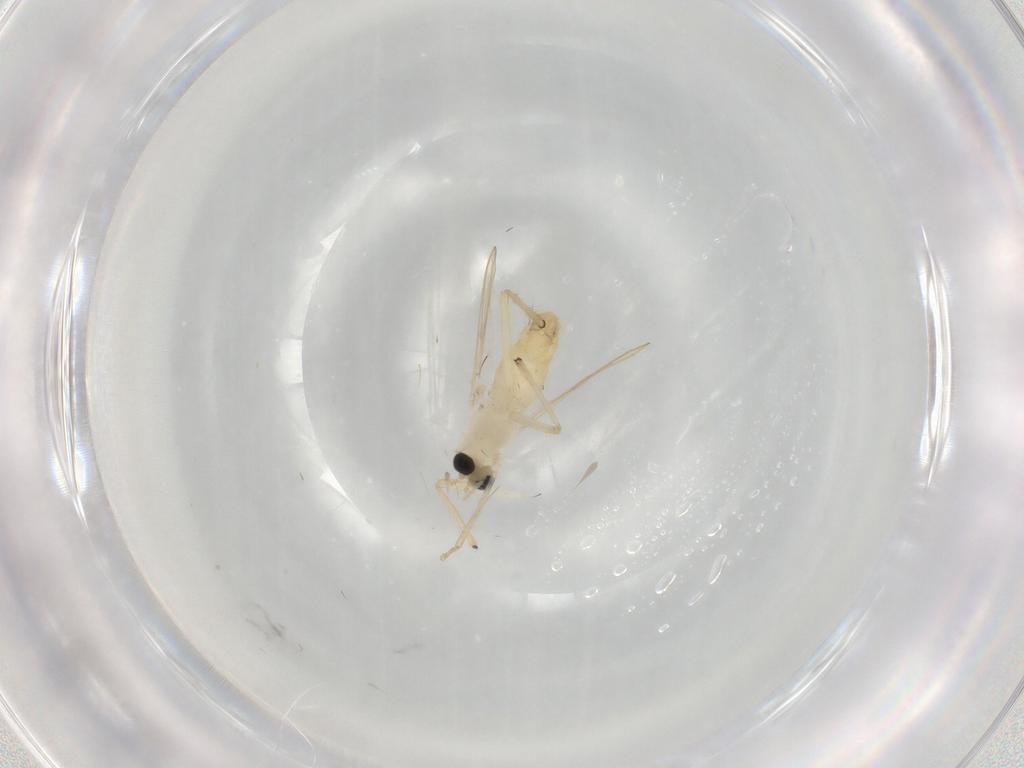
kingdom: Animalia
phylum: Arthropoda
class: Insecta
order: Diptera
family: Chironomidae
